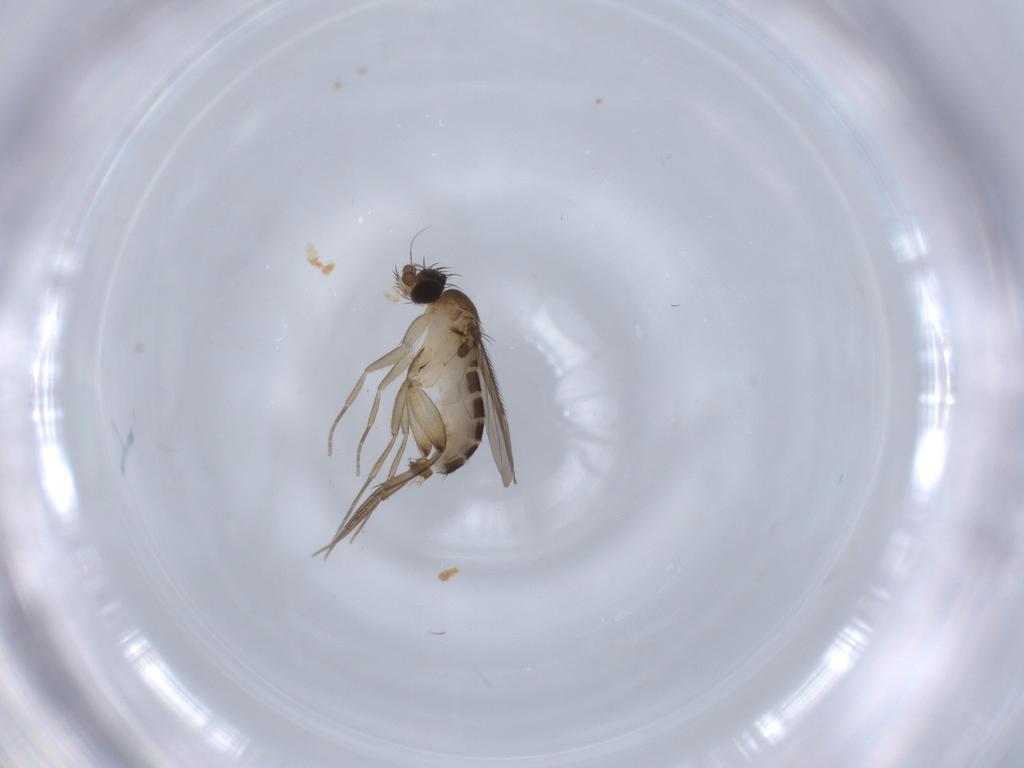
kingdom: Animalia
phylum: Arthropoda
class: Insecta
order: Diptera
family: Phoridae
